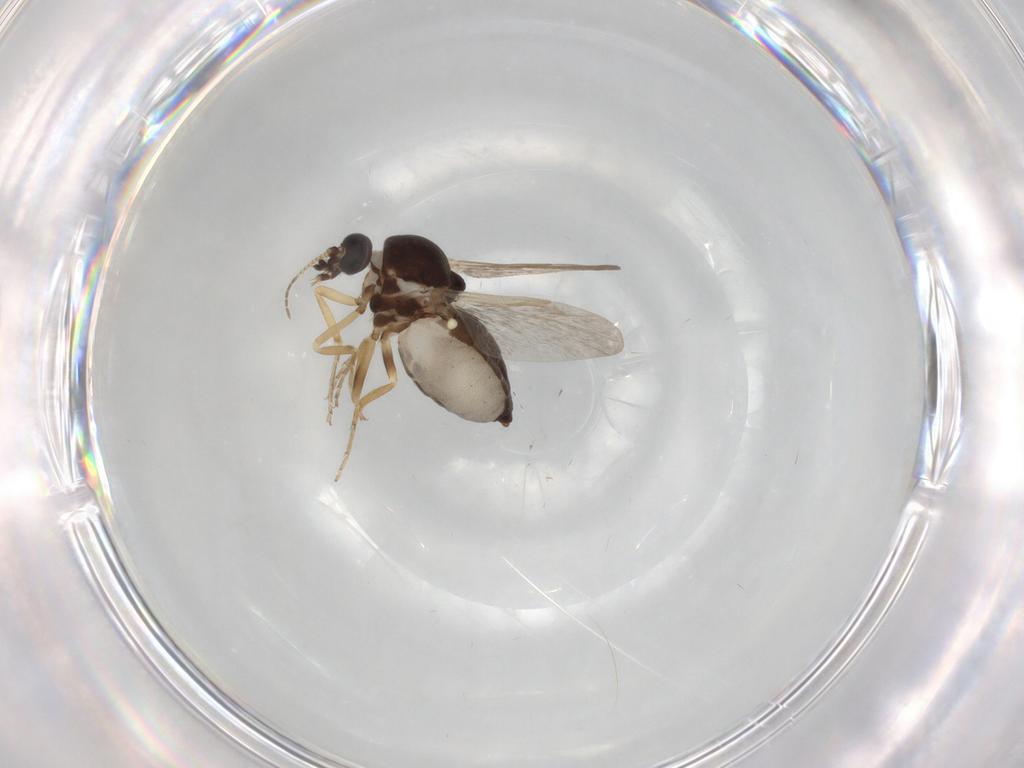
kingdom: Animalia
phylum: Arthropoda
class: Insecta
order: Diptera
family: Ceratopogonidae
